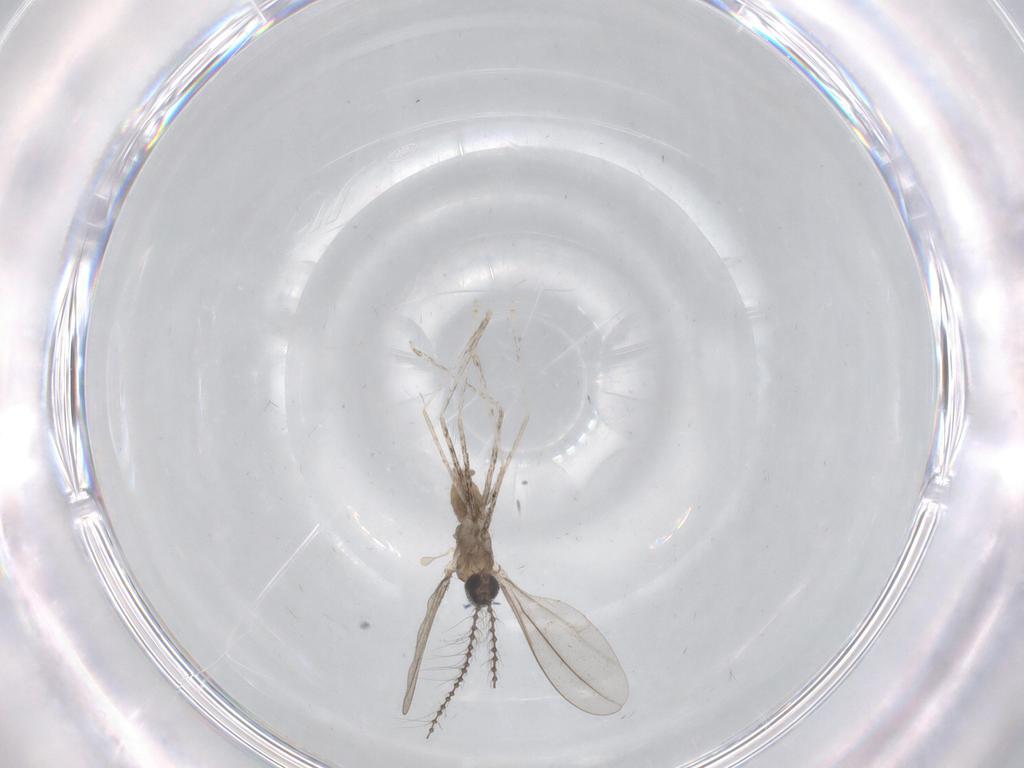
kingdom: Animalia
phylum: Arthropoda
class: Insecta
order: Diptera
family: Cecidomyiidae
